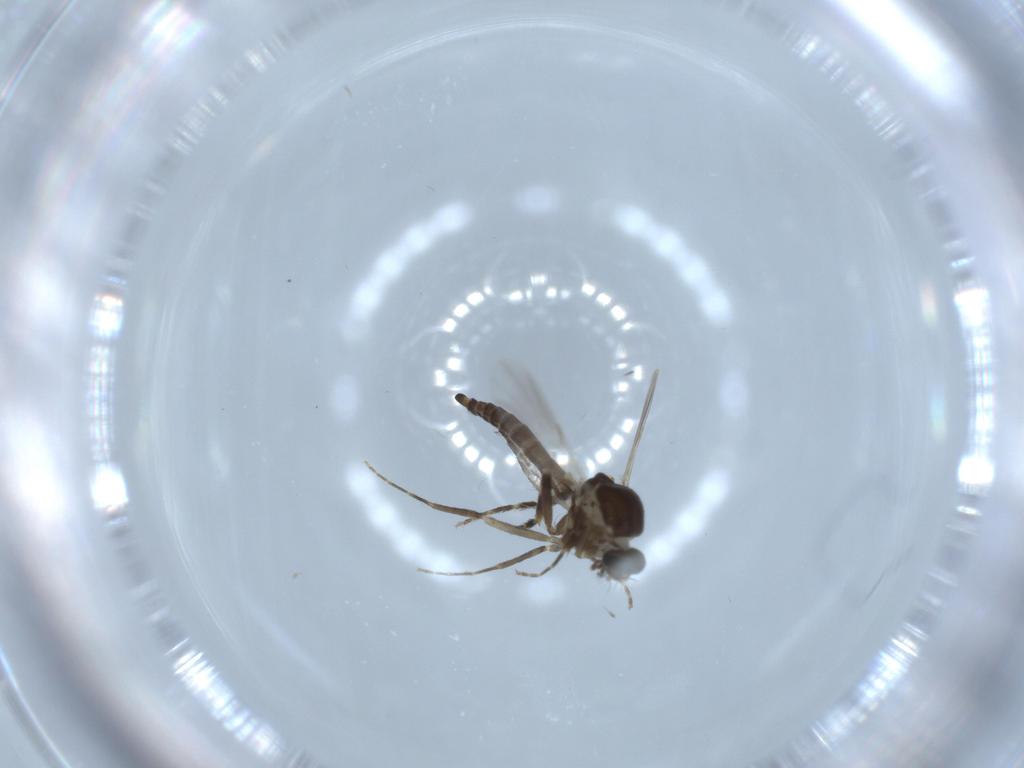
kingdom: Animalia
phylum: Arthropoda
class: Insecta
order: Diptera
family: Ceratopogonidae
